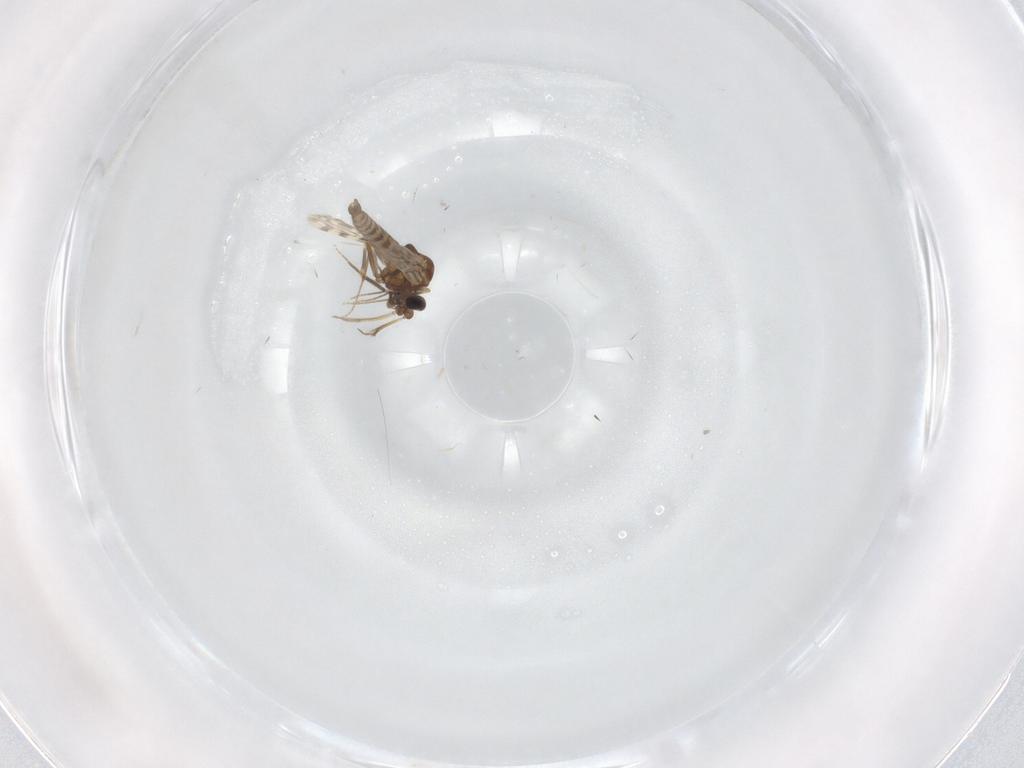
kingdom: Animalia
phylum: Arthropoda
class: Insecta
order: Diptera
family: Ceratopogonidae
